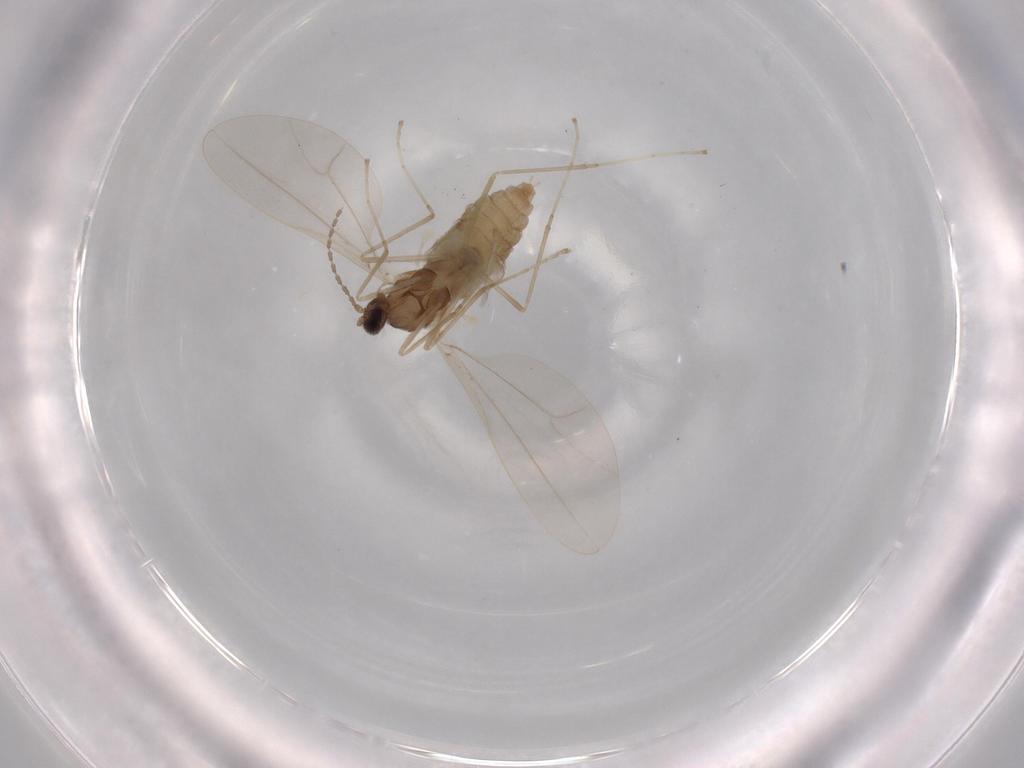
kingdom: Animalia
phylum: Arthropoda
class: Insecta
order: Diptera
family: Cecidomyiidae
